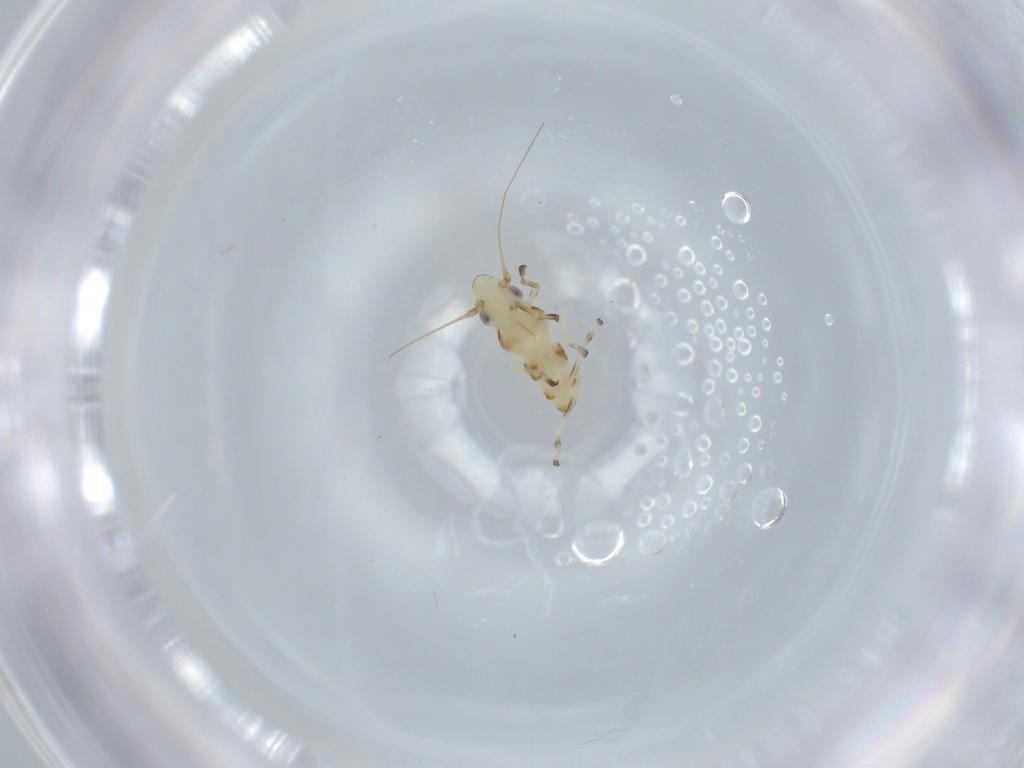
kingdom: Animalia
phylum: Arthropoda
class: Insecta
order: Hemiptera
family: Cicadellidae
